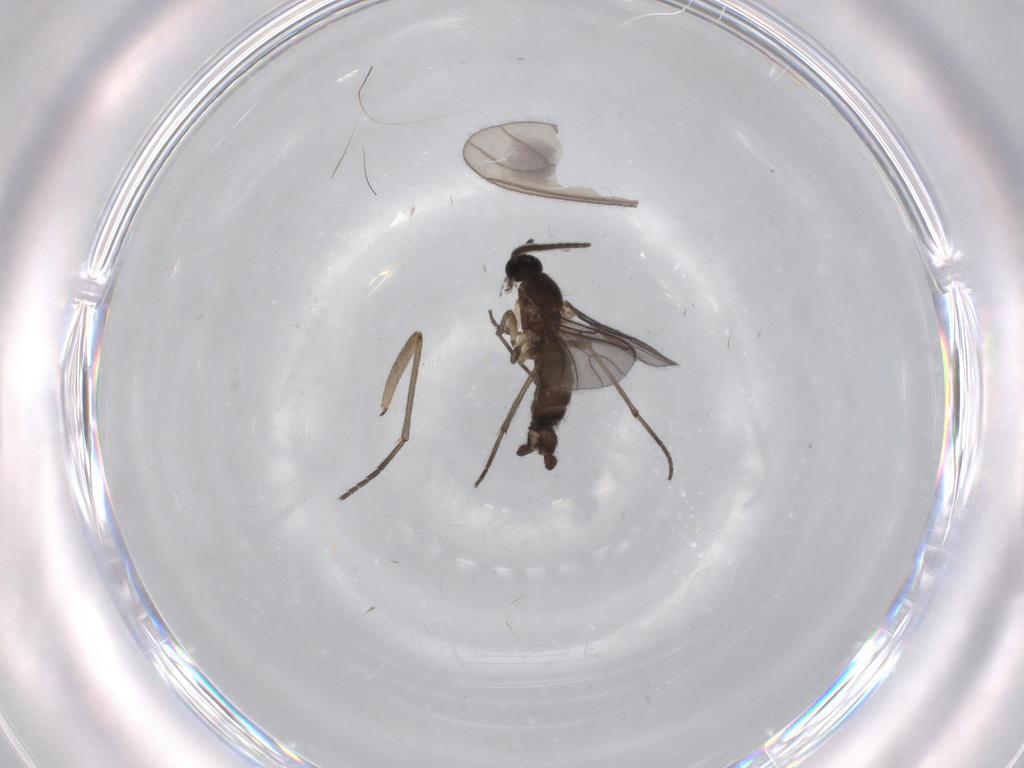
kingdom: Animalia
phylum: Arthropoda
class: Insecta
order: Diptera
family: Sciaridae
